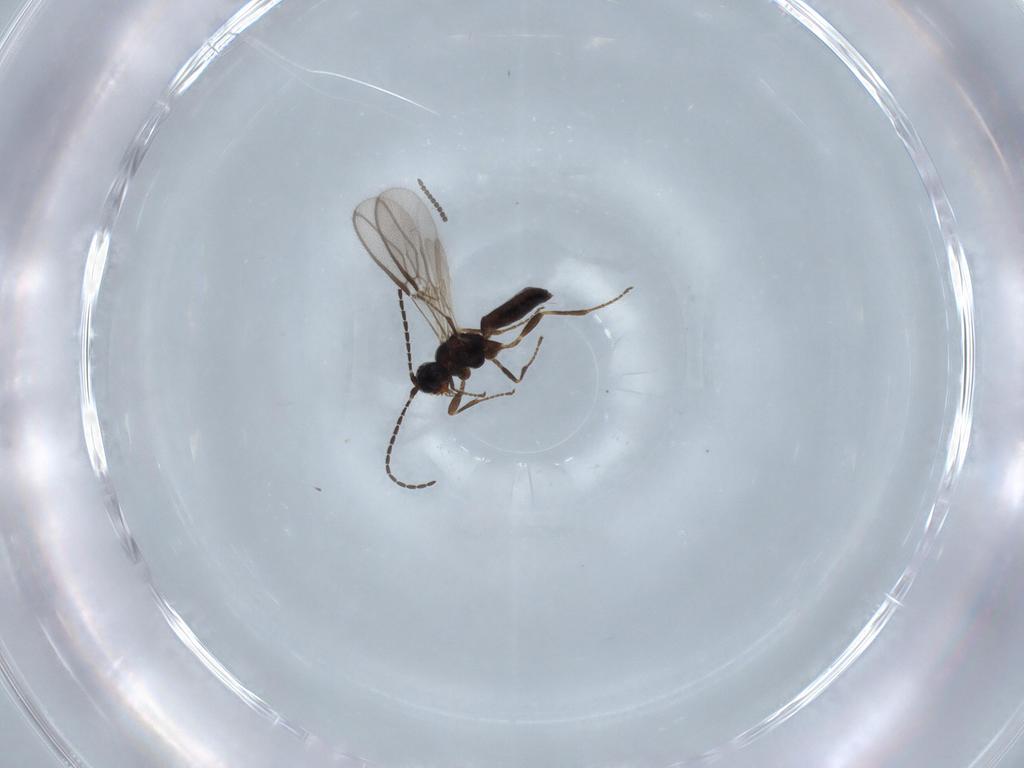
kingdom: Animalia
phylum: Arthropoda
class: Insecta
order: Hymenoptera
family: Braconidae
